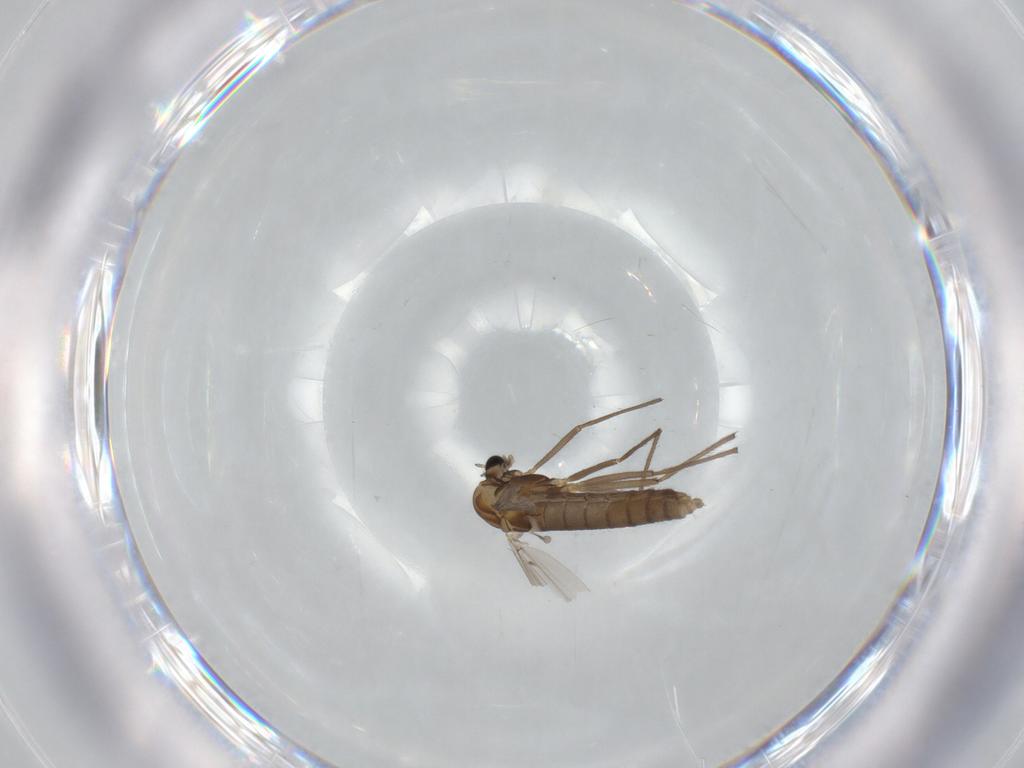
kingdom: Animalia
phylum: Arthropoda
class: Insecta
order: Diptera
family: Chironomidae
